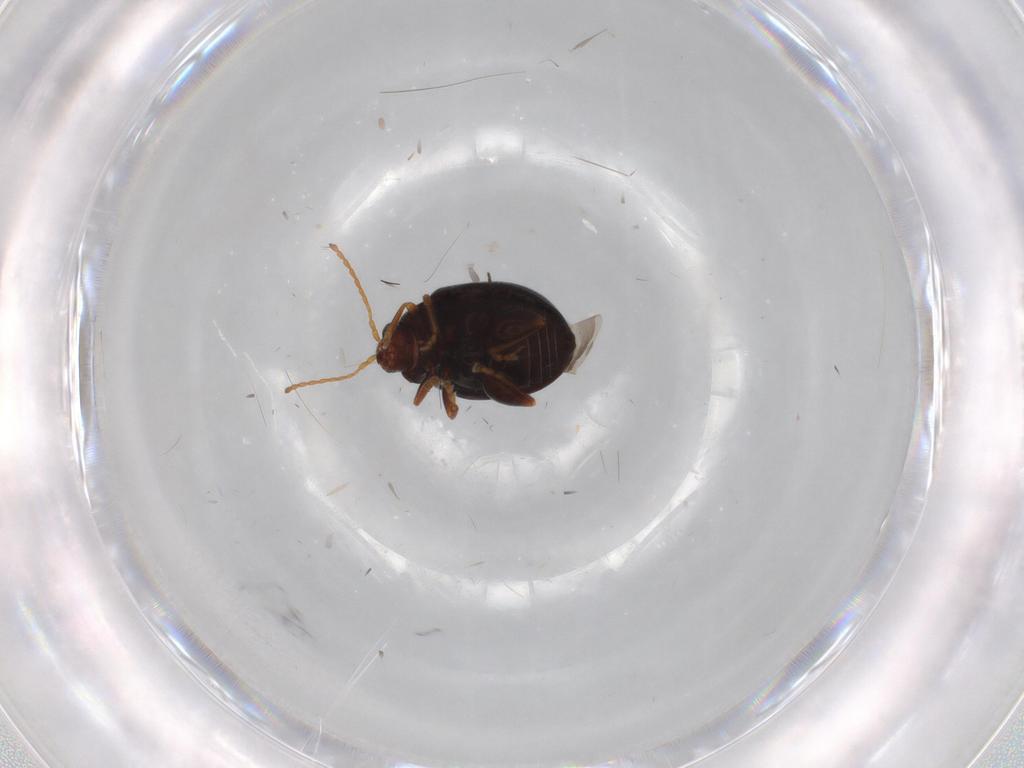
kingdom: Animalia
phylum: Arthropoda
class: Insecta
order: Coleoptera
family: Chrysomelidae
